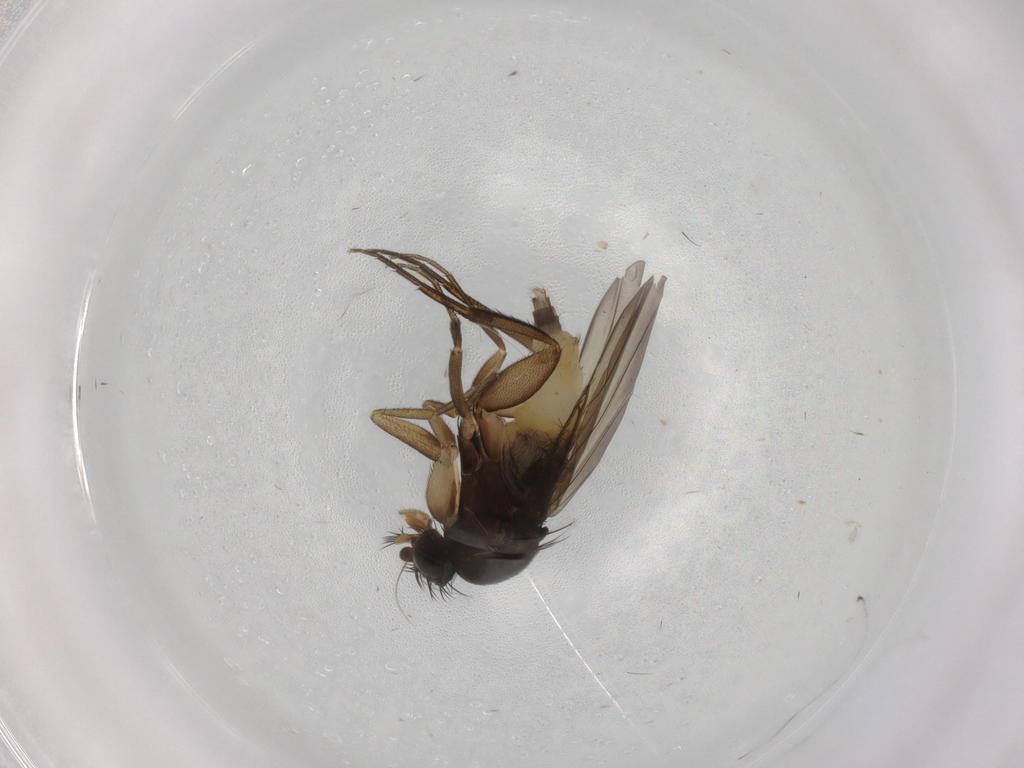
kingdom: Animalia
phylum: Arthropoda
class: Insecta
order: Diptera
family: Phoridae
